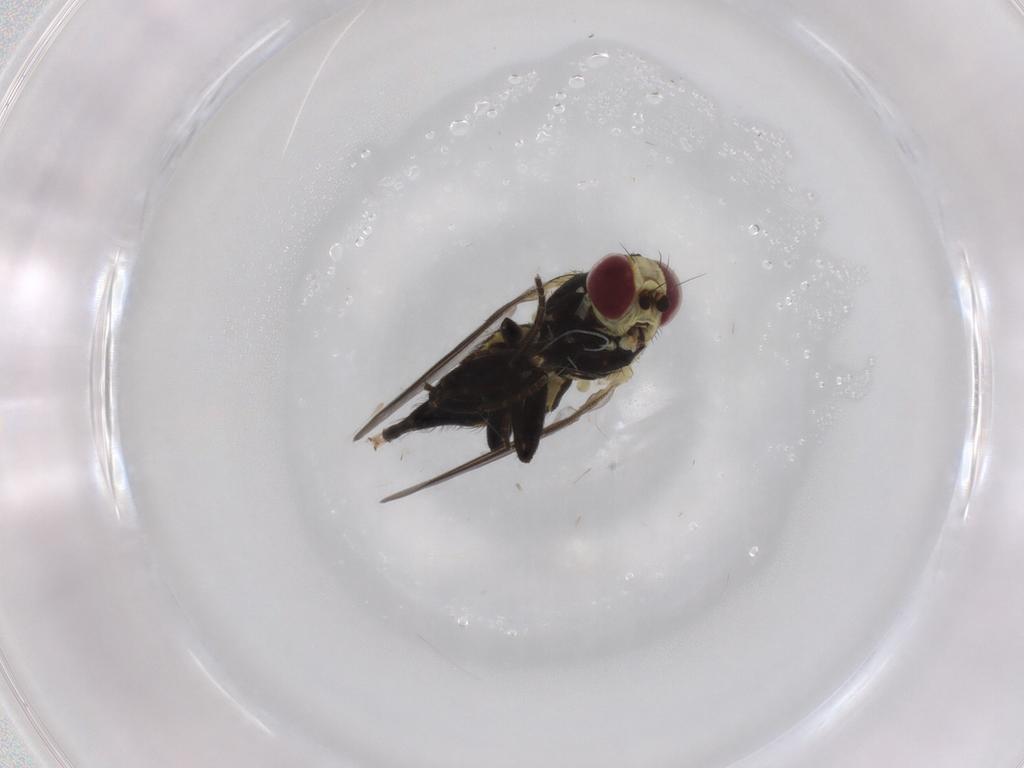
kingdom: Animalia
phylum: Arthropoda
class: Insecta
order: Diptera
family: Agromyzidae
